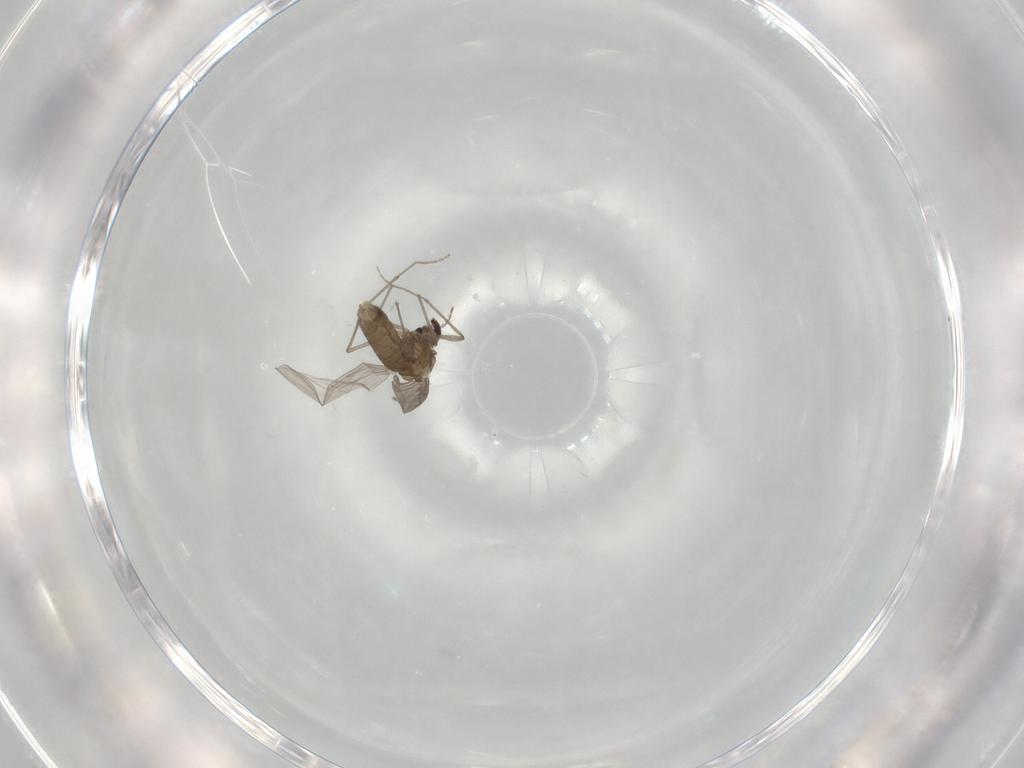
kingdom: Animalia
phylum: Arthropoda
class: Insecta
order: Diptera
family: Chironomidae
